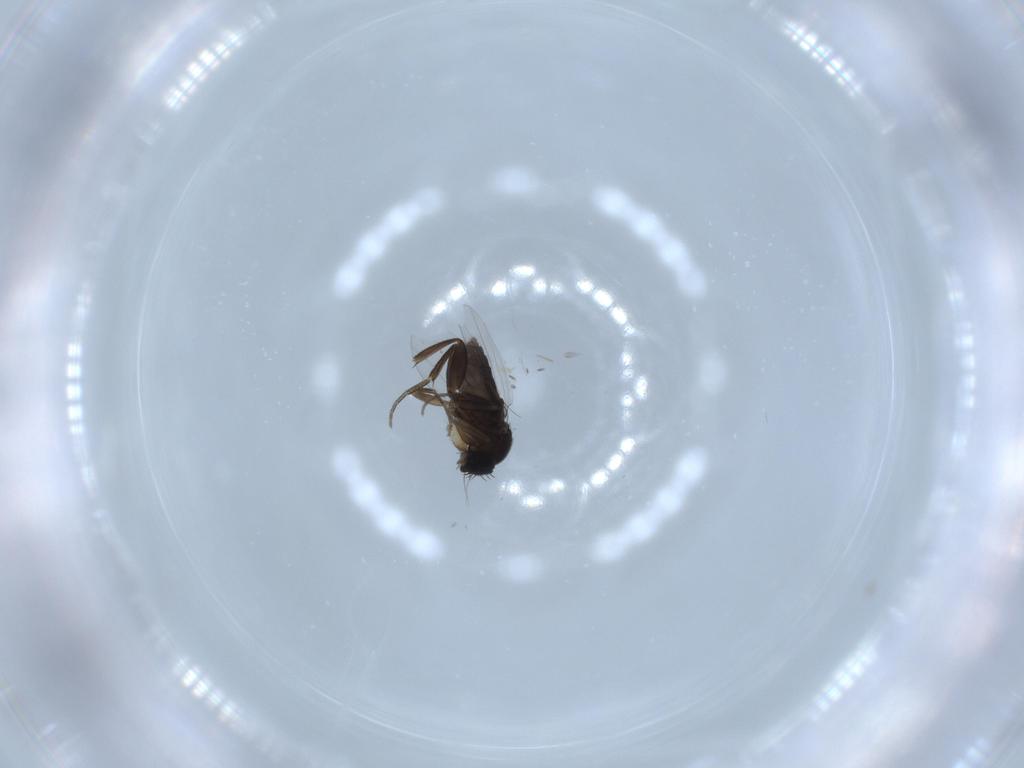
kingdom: Animalia
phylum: Arthropoda
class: Insecta
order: Diptera
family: Phoridae
